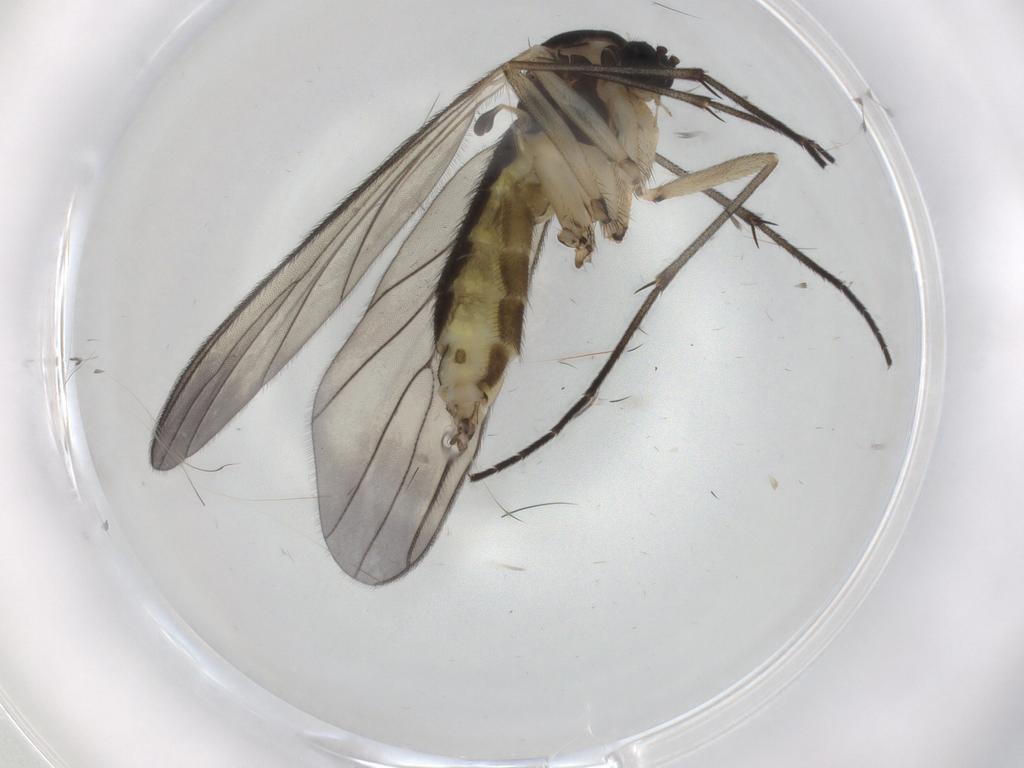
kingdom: Animalia
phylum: Arthropoda
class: Insecta
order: Diptera
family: Sciaridae
